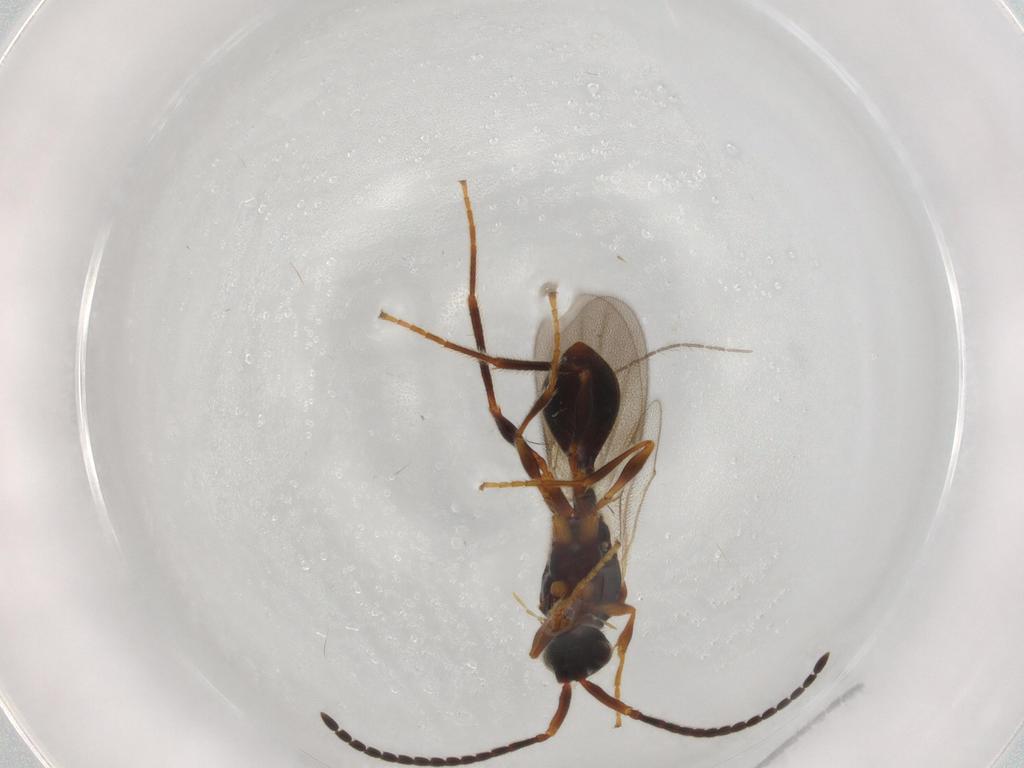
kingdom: Animalia
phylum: Arthropoda
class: Insecta
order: Hymenoptera
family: Diapriidae
